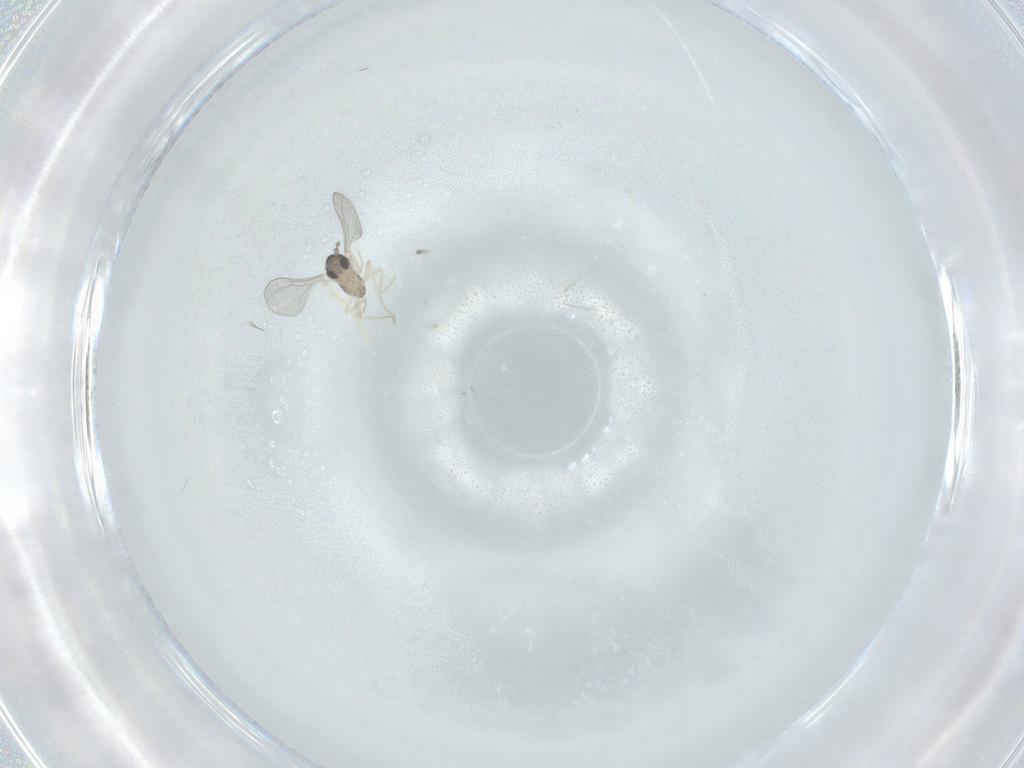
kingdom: Animalia
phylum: Arthropoda
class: Insecta
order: Diptera
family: Cecidomyiidae
